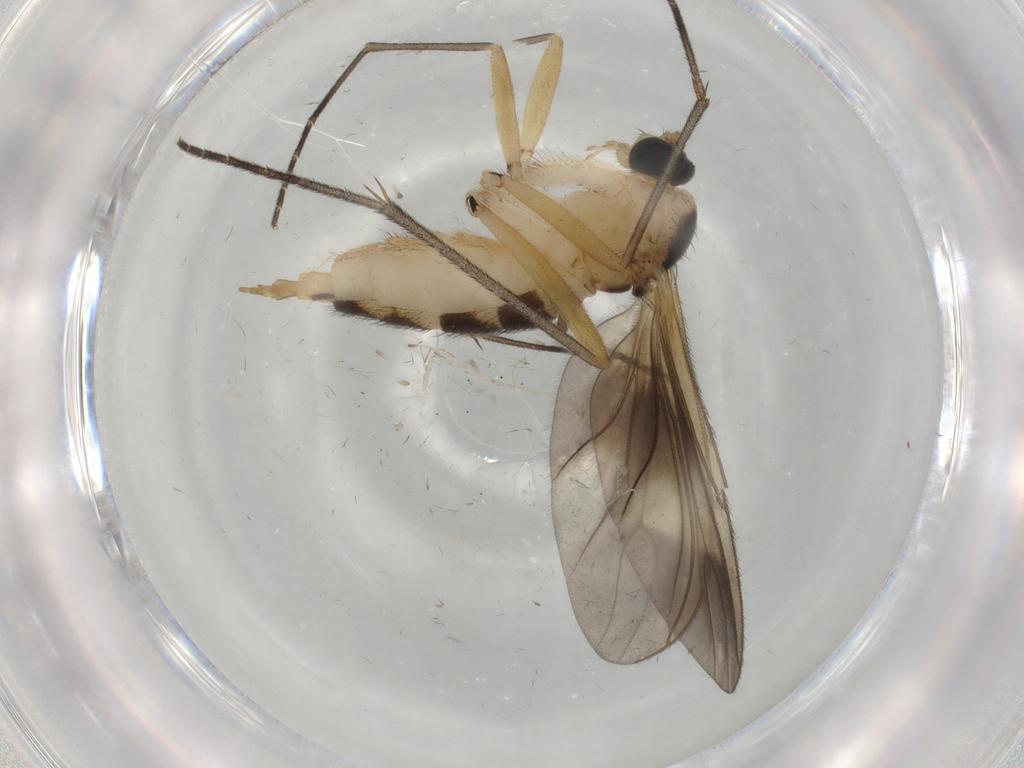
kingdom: Animalia
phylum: Arthropoda
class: Insecta
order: Diptera
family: Sciaridae
